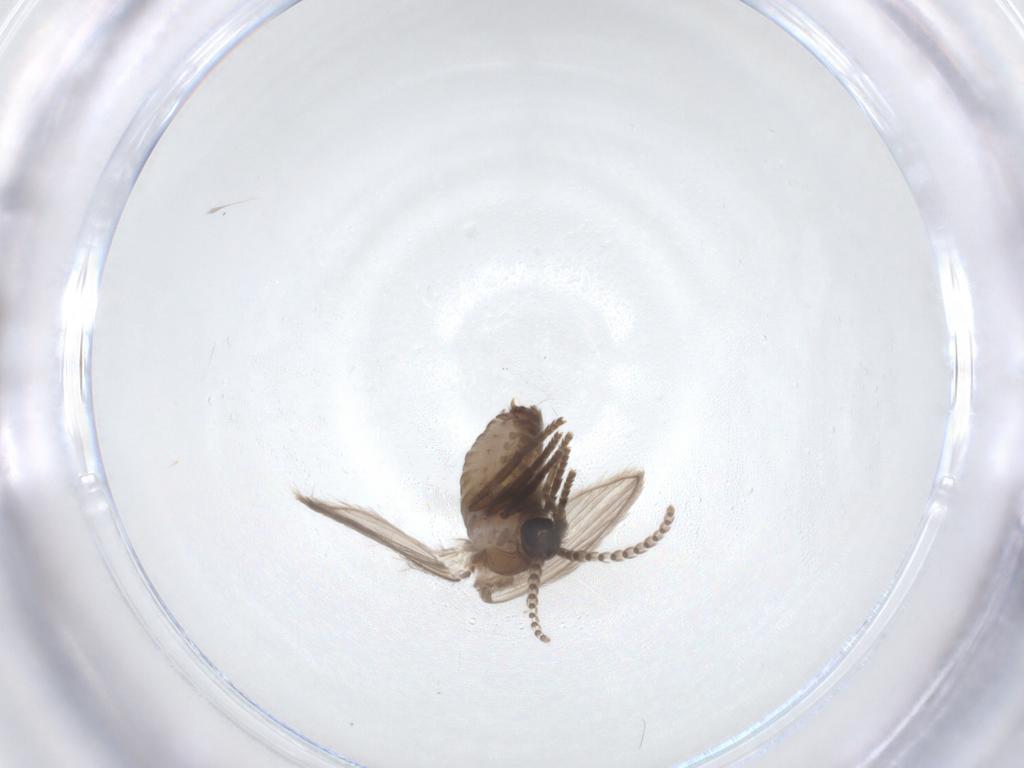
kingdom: Animalia
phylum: Arthropoda
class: Insecta
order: Diptera
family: Psychodidae
